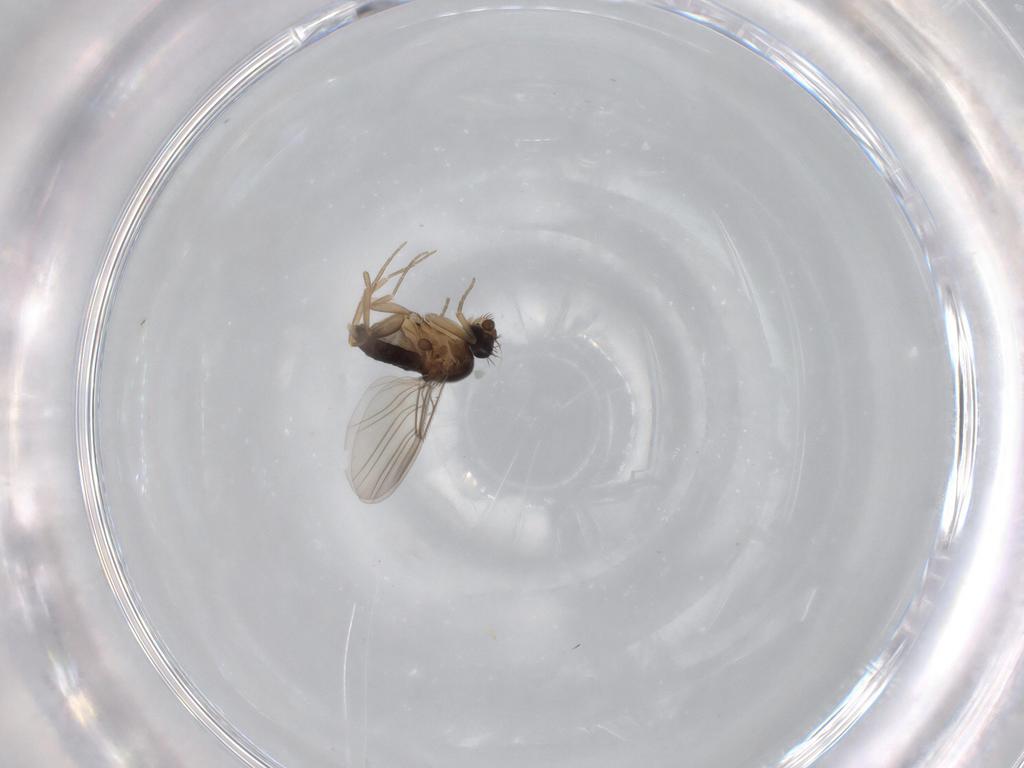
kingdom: Animalia
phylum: Arthropoda
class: Insecta
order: Diptera
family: Phoridae
